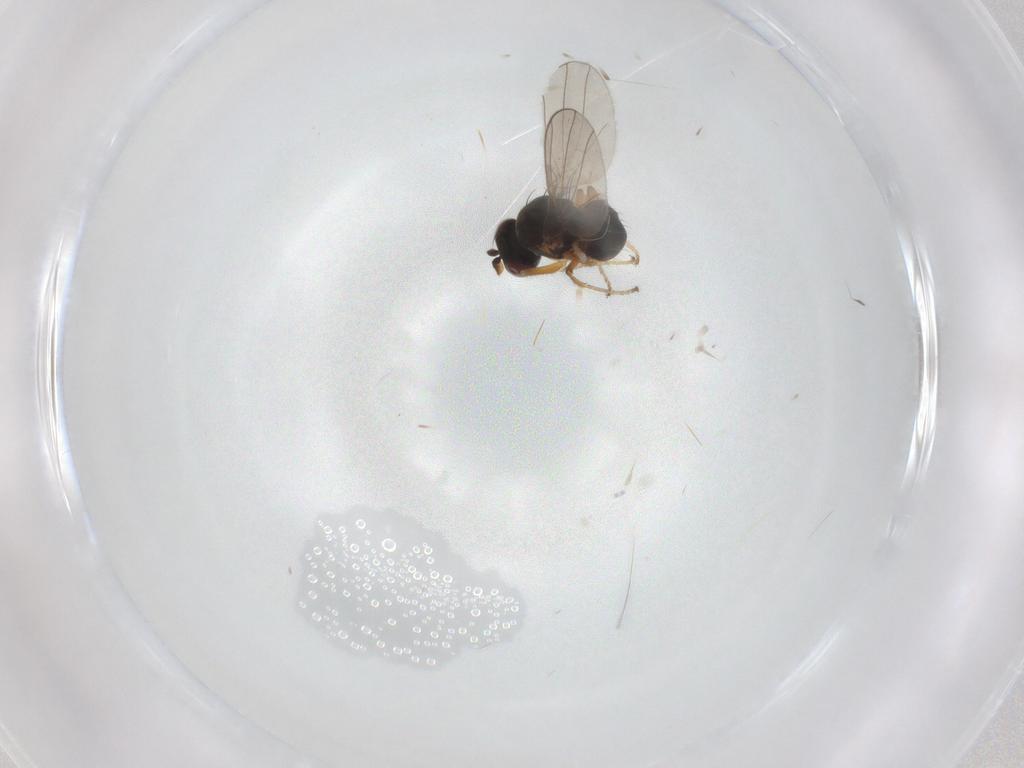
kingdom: Animalia
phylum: Arthropoda
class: Insecta
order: Diptera
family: Ephydridae
